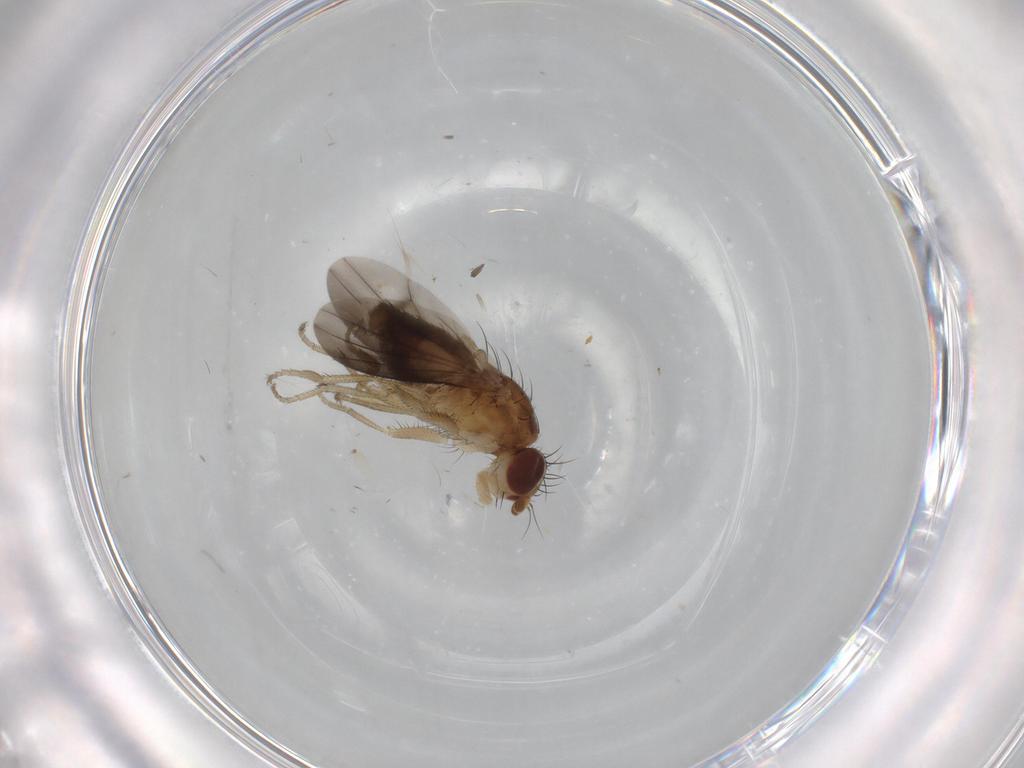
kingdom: Animalia
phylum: Arthropoda
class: Insecta
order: Diptera
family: Heleomyzidae
